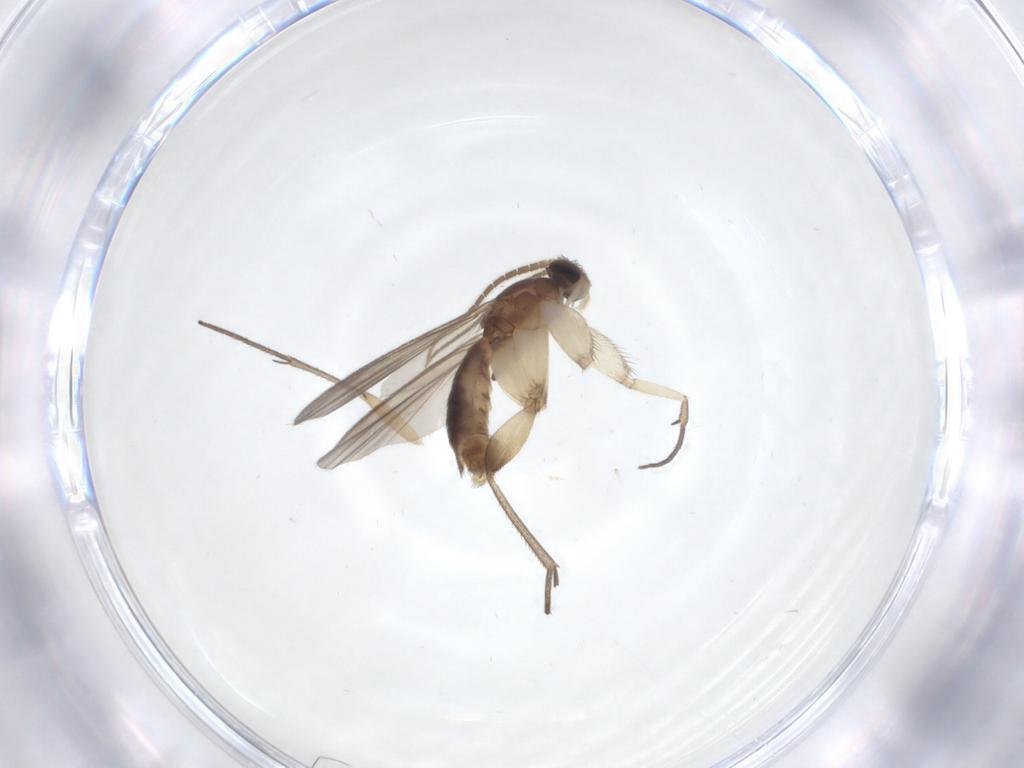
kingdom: Animalia
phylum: Arthropoda
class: Insecta
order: Diptera
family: Mycetophilidae
